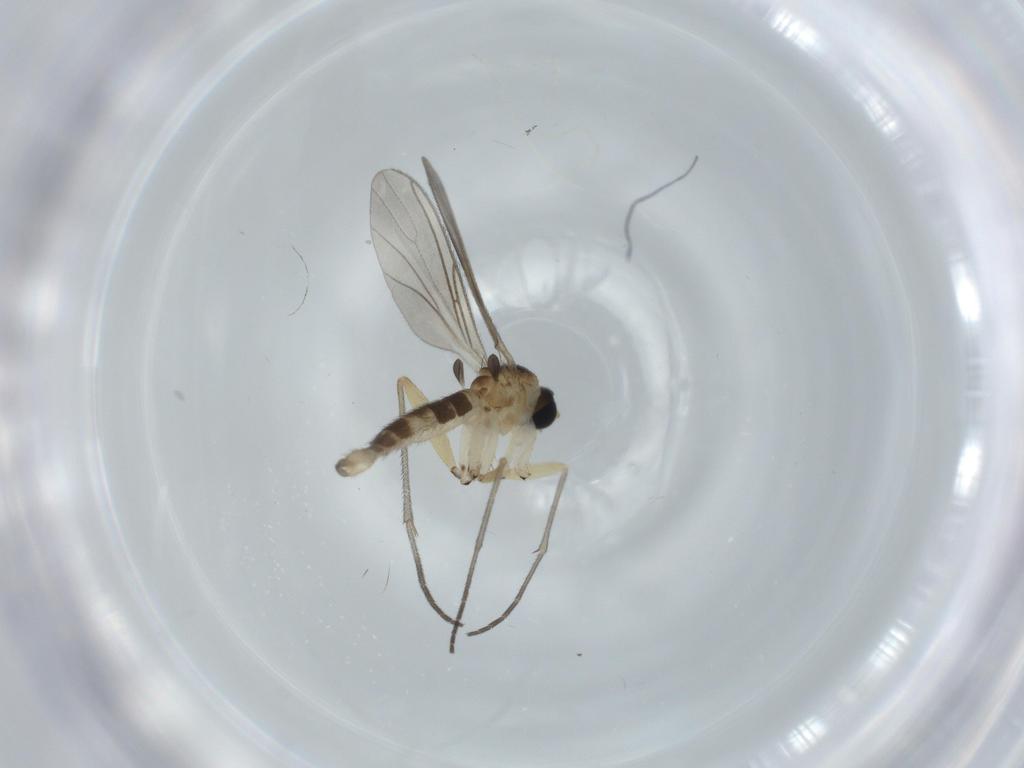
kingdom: Animalia
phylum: Arthropoda
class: Insecta
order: Diptera
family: Sciaridae
